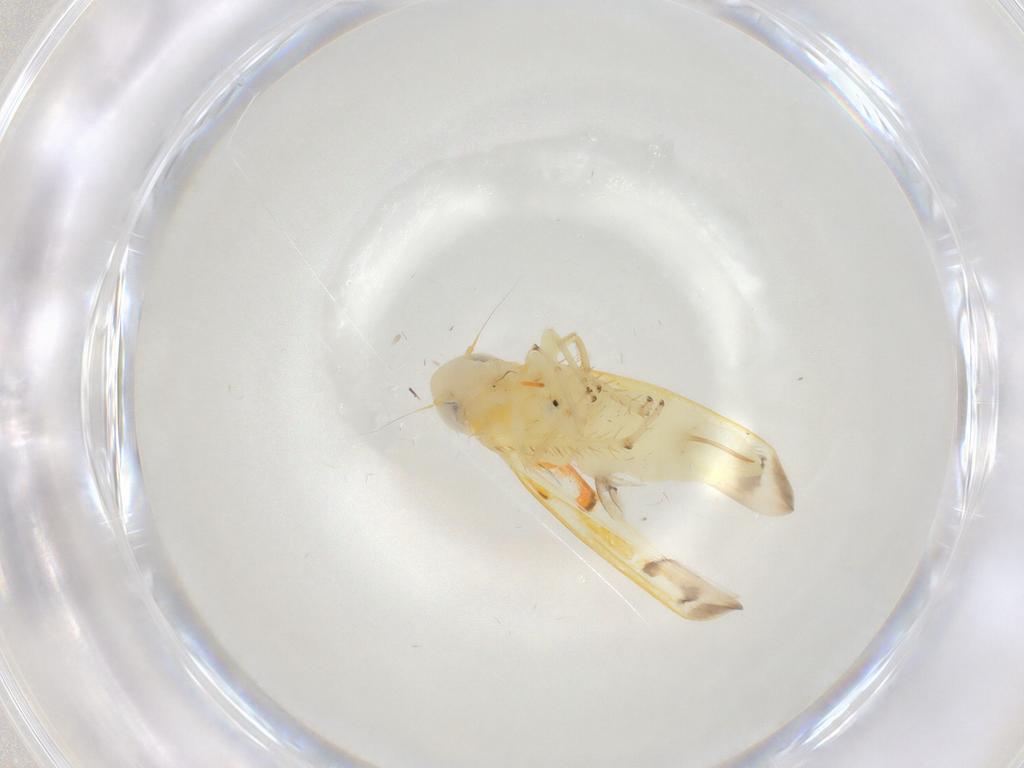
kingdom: Animalia
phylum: Arthropoda
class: Insecta
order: Hemiptera
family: Cicadellidae
